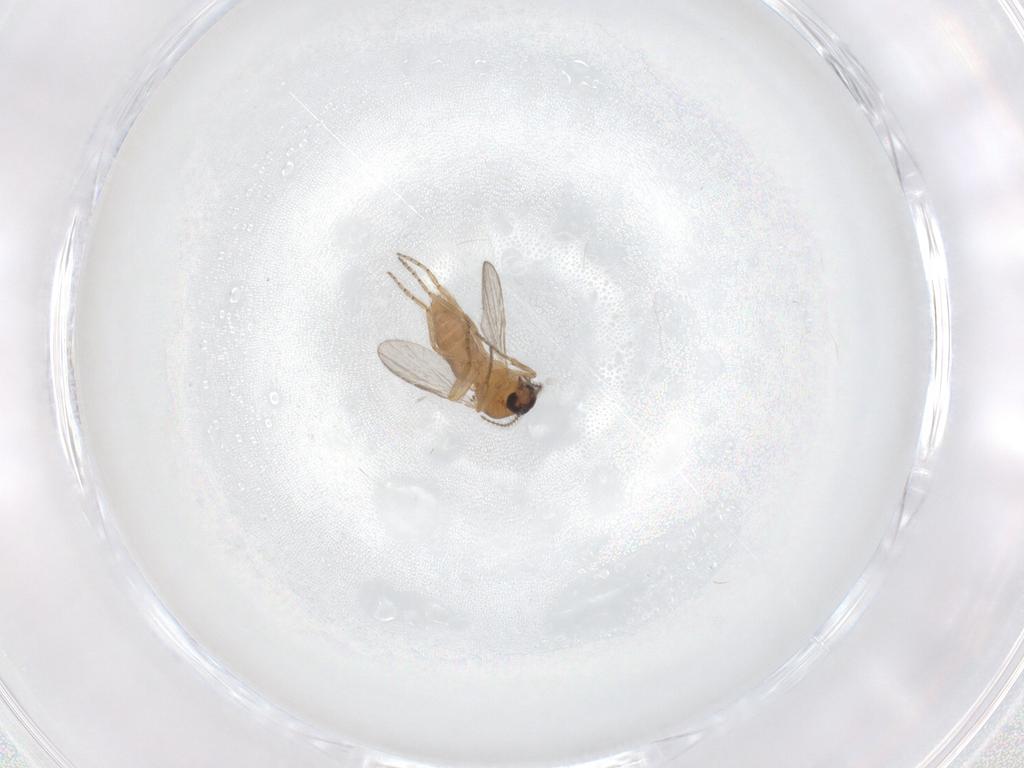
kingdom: Animalia
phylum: Arthropoda
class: Insecta
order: Diptera
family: Ceratopogonidae
